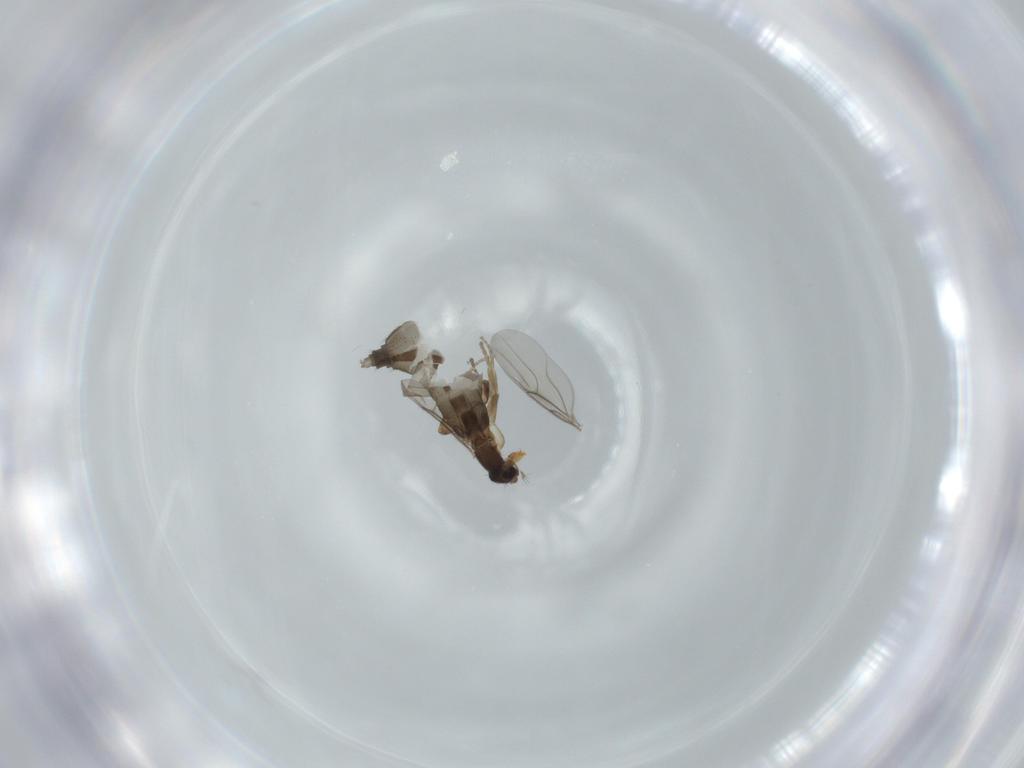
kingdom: Animalia
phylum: Arthropoda
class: Insecta
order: Diptera
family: Phoridae
